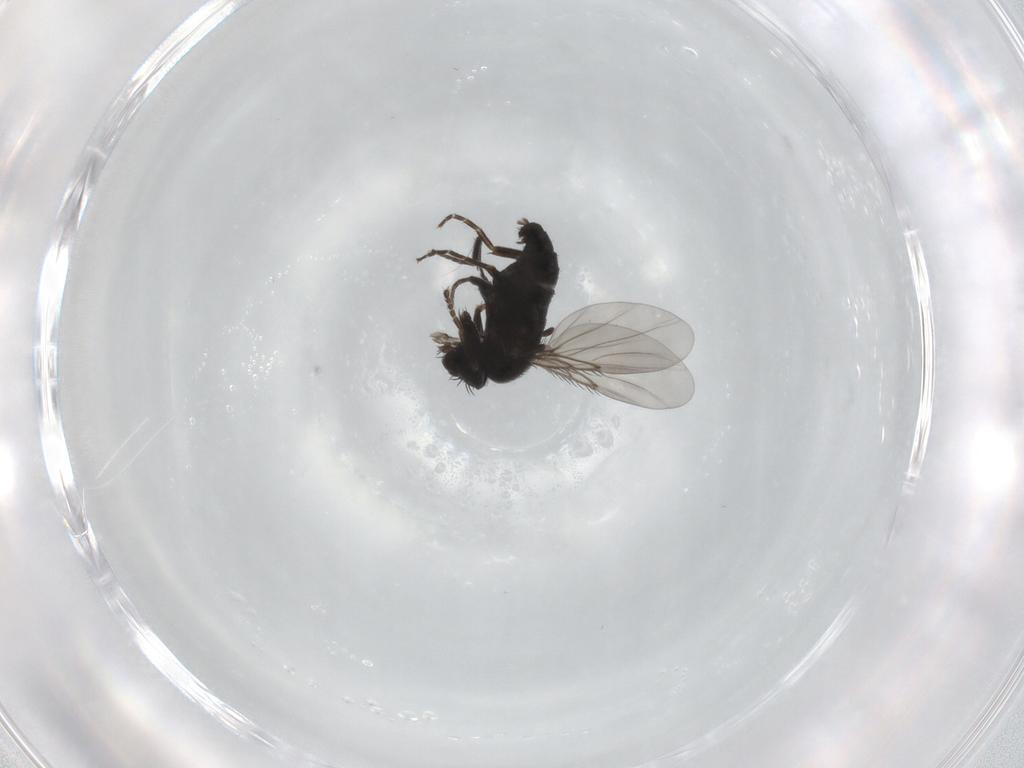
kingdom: Animalia
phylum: Arthropoda
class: Insecta
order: Diptera
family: Phoridae
